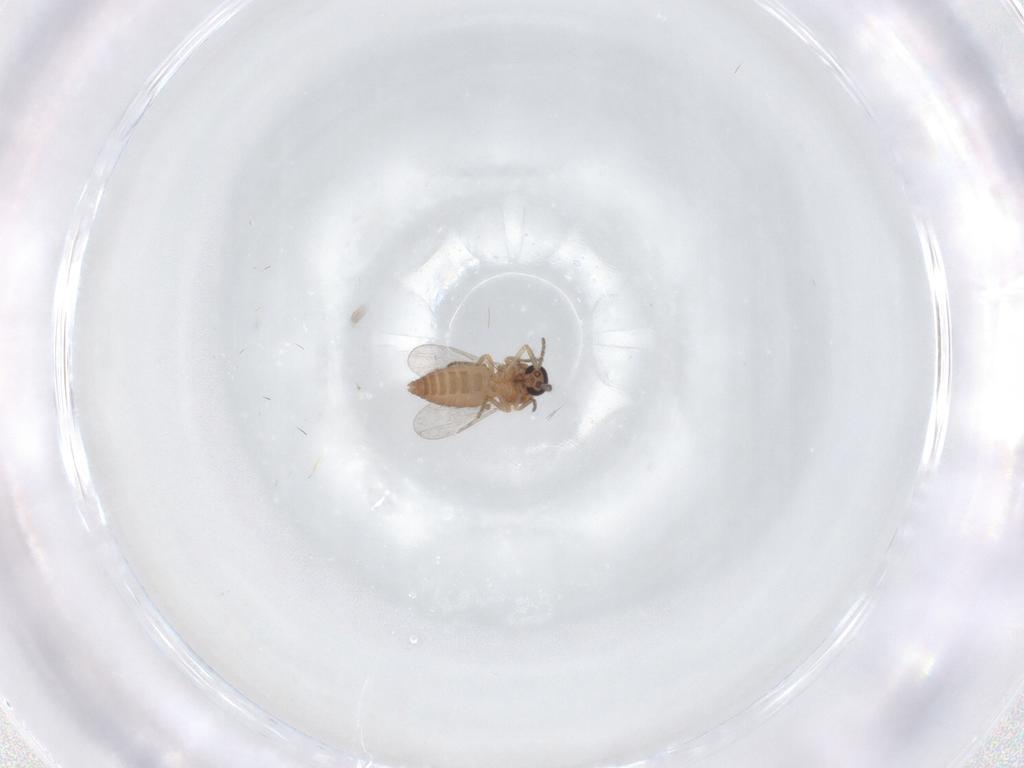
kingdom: Animalia
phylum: Arthropoda
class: Insecta
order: Diptera
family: Ceratopogonidae
